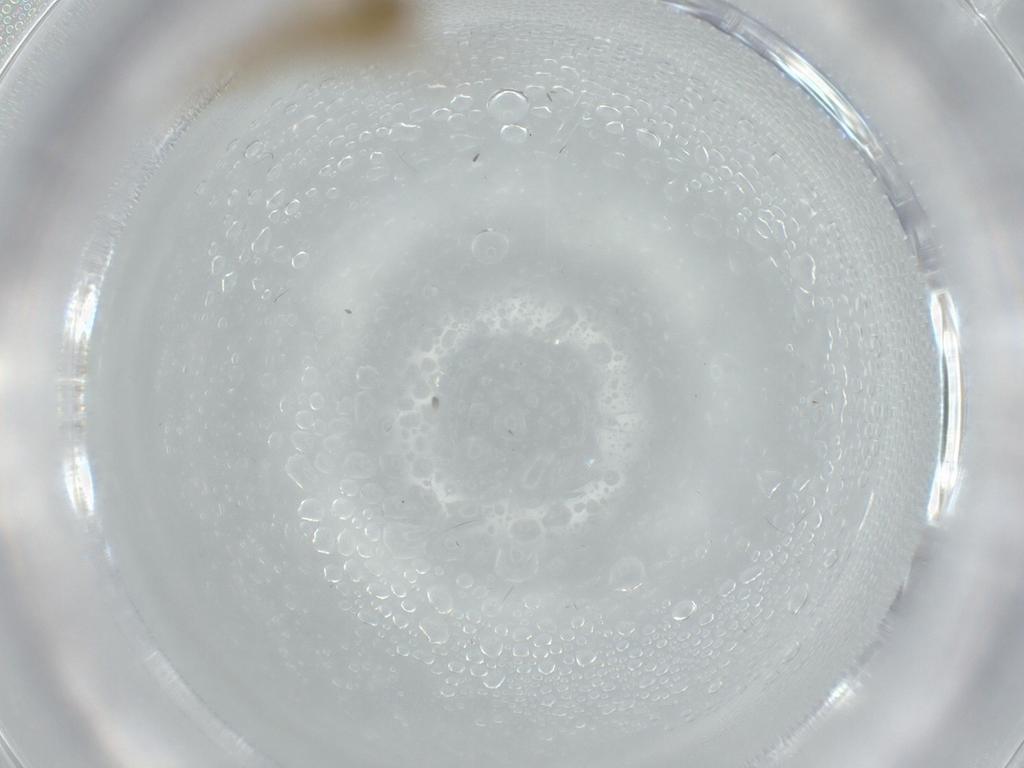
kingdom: Animalia
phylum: Arthropoda
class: Insecta
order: Diptera
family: Chironomidae
